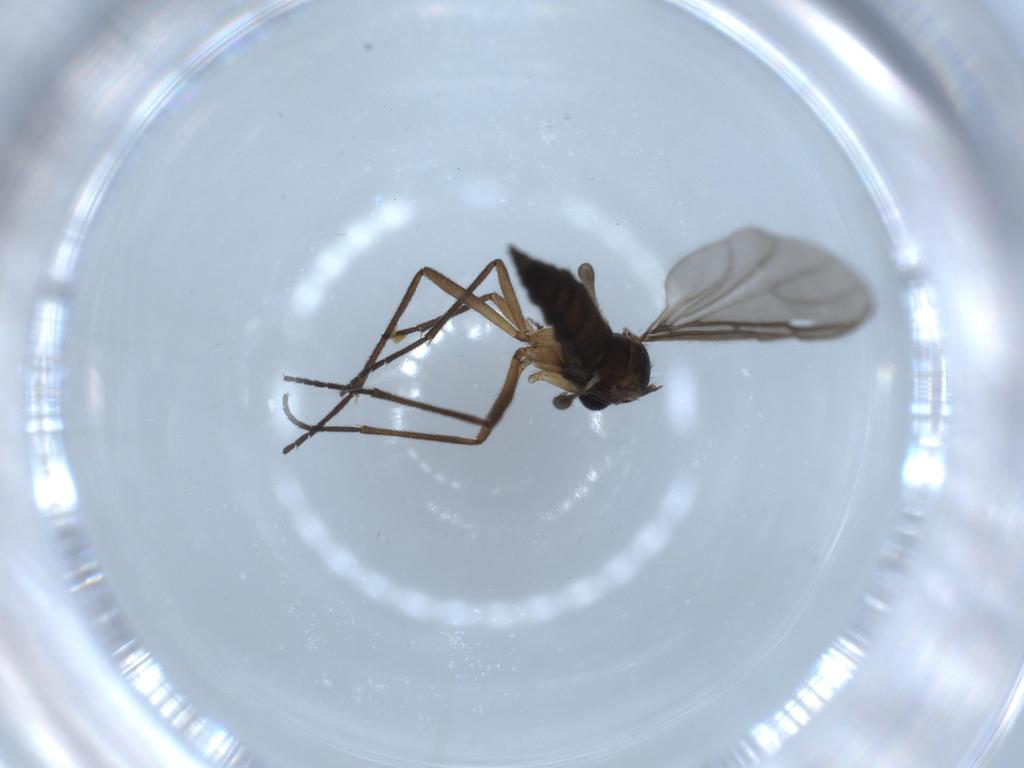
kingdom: Animalia
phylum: Arthropoda
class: Insecta
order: Diptera
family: Sciaridae
